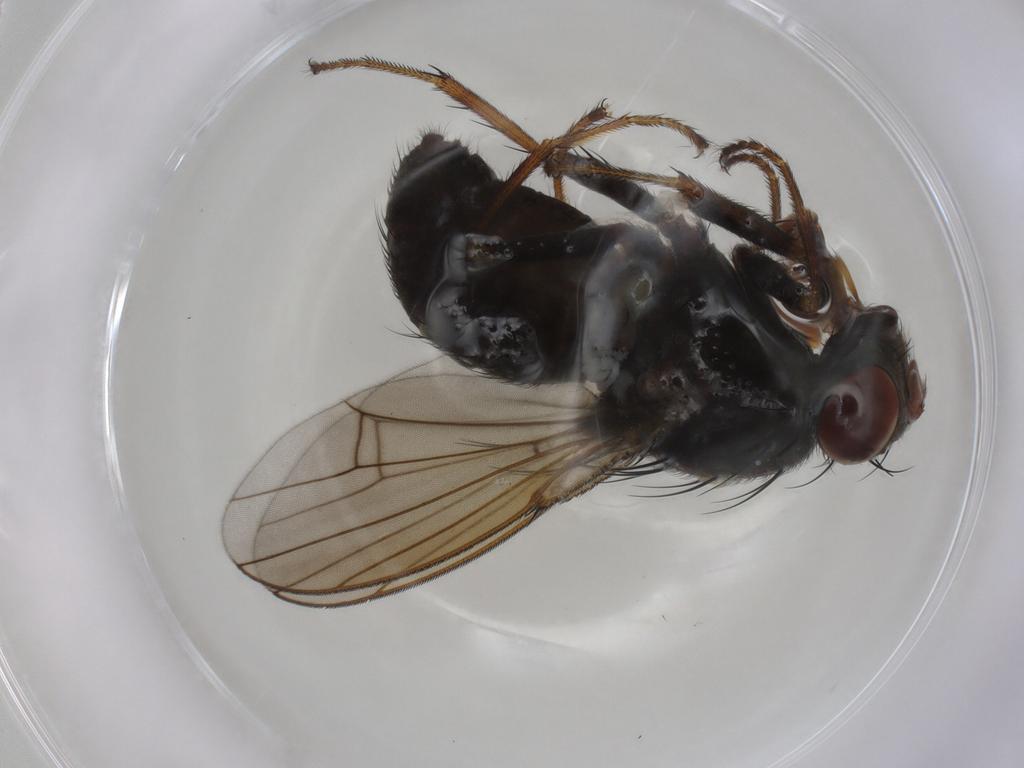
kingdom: Animalia
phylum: Arthropoda
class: Insecta
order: Diptera
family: Ephydridae
